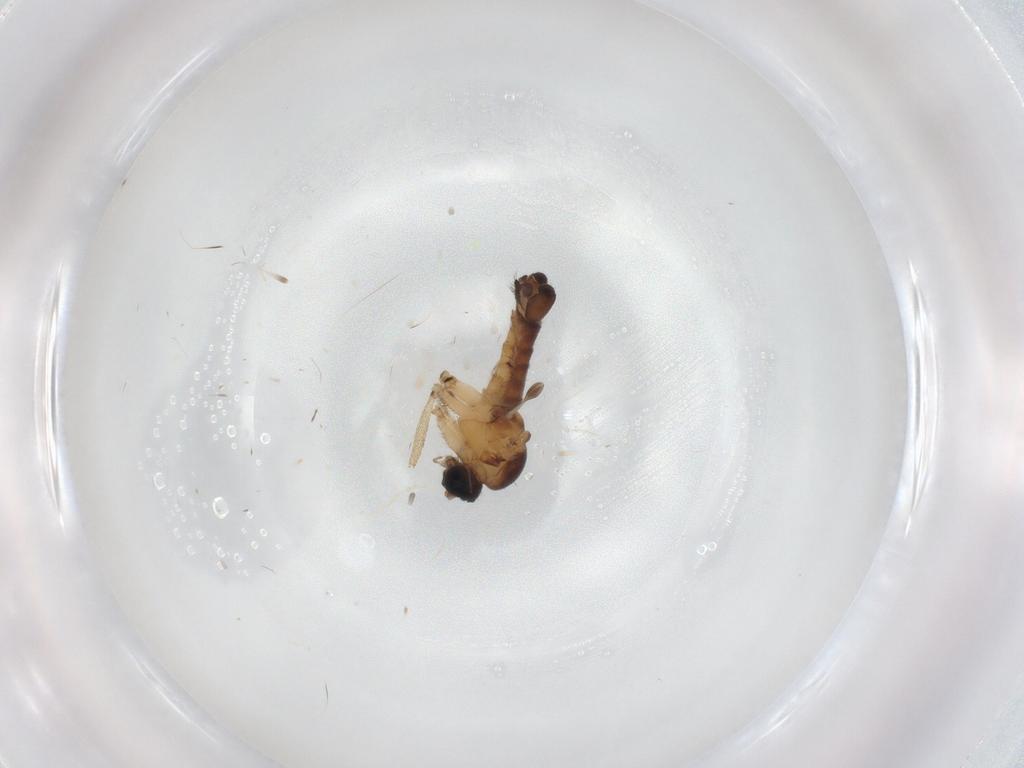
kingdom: Animalia
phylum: Arthropoda
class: Insecta
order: Diptera
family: Sciaridae
